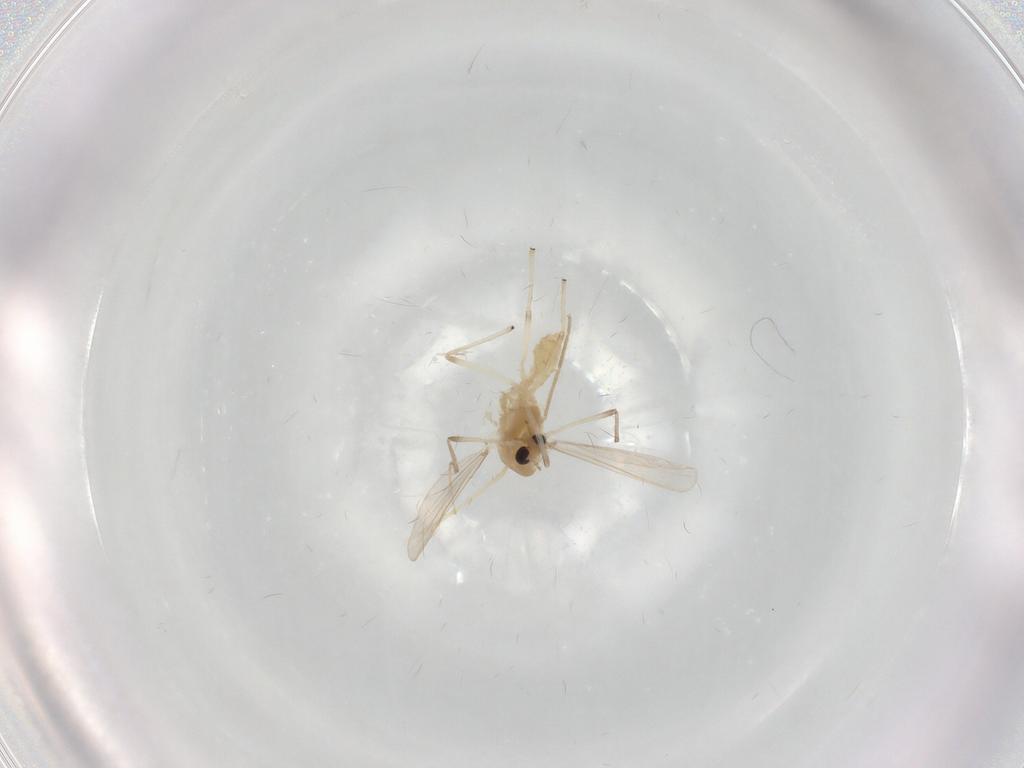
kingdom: Animalia
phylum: Arthropoda
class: Insecta
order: Diptera
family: Chironomidae
